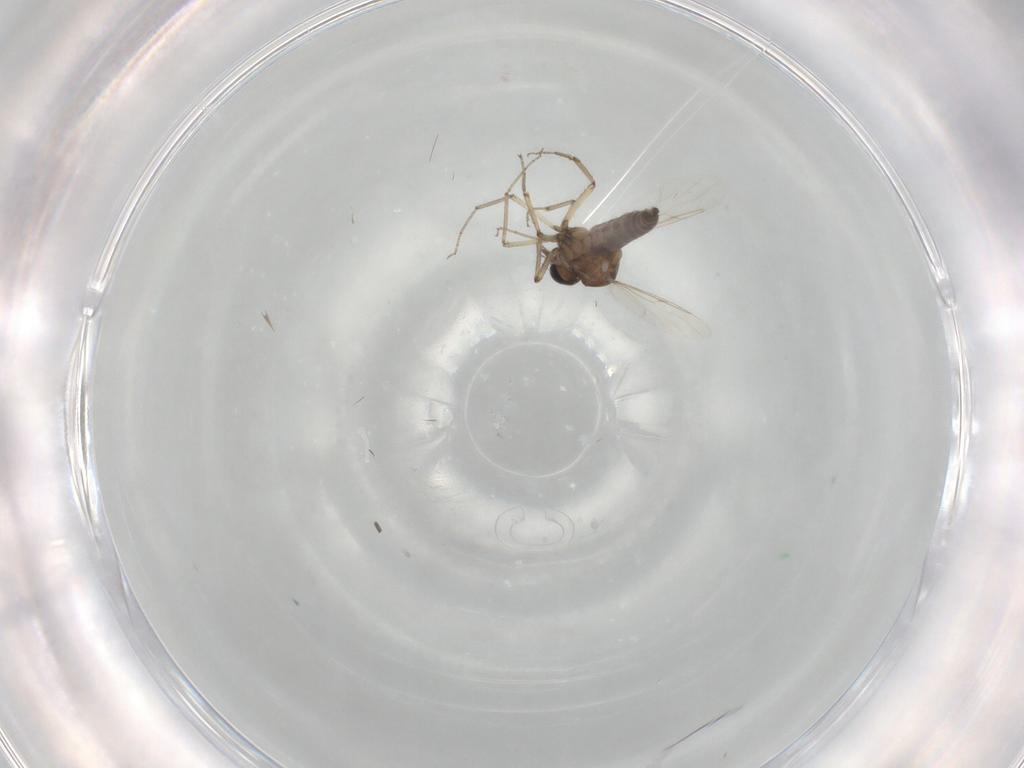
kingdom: Animalia
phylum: Arthropoda
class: Insecta
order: Diptera
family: Ceratopogonidae
